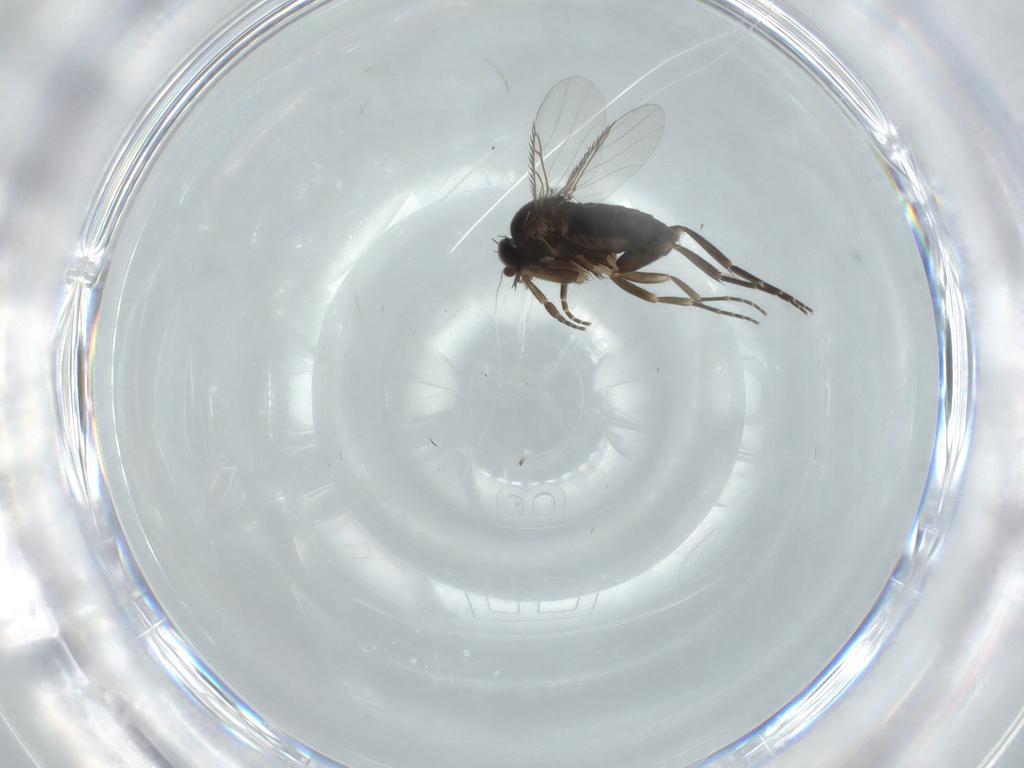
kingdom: Animalia
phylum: Arthropoda
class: Insecta
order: Diptera
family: Phoridae
